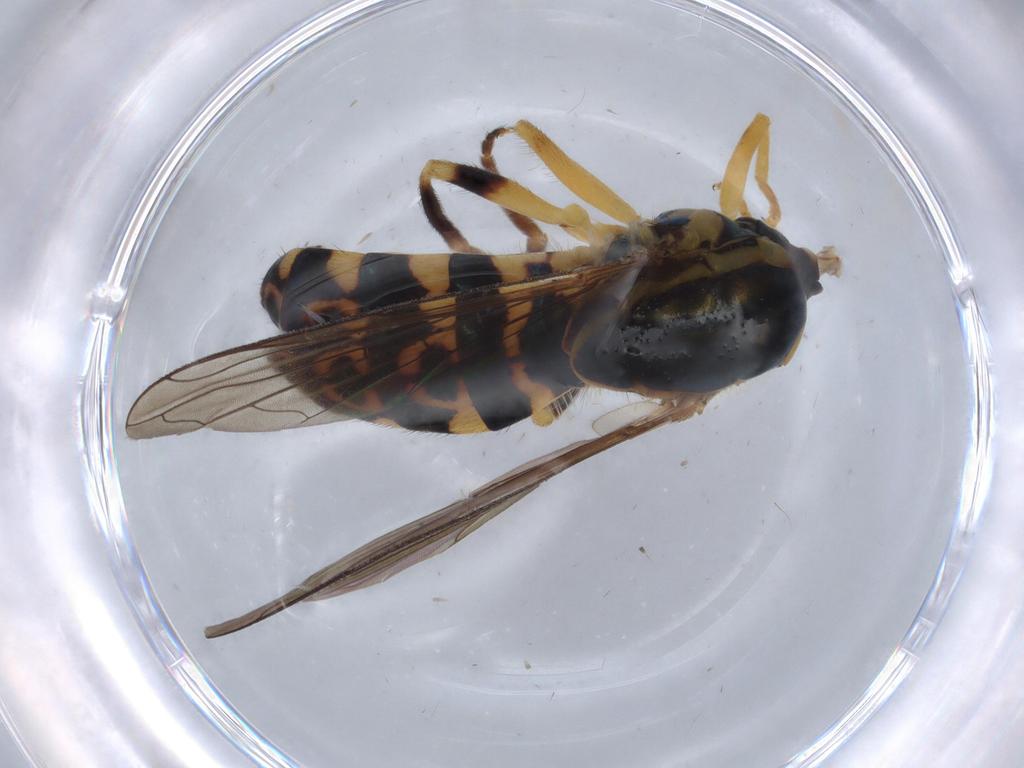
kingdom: Animalia
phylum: Arthropoda
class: Insecta
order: Diptera
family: Syrphidae
